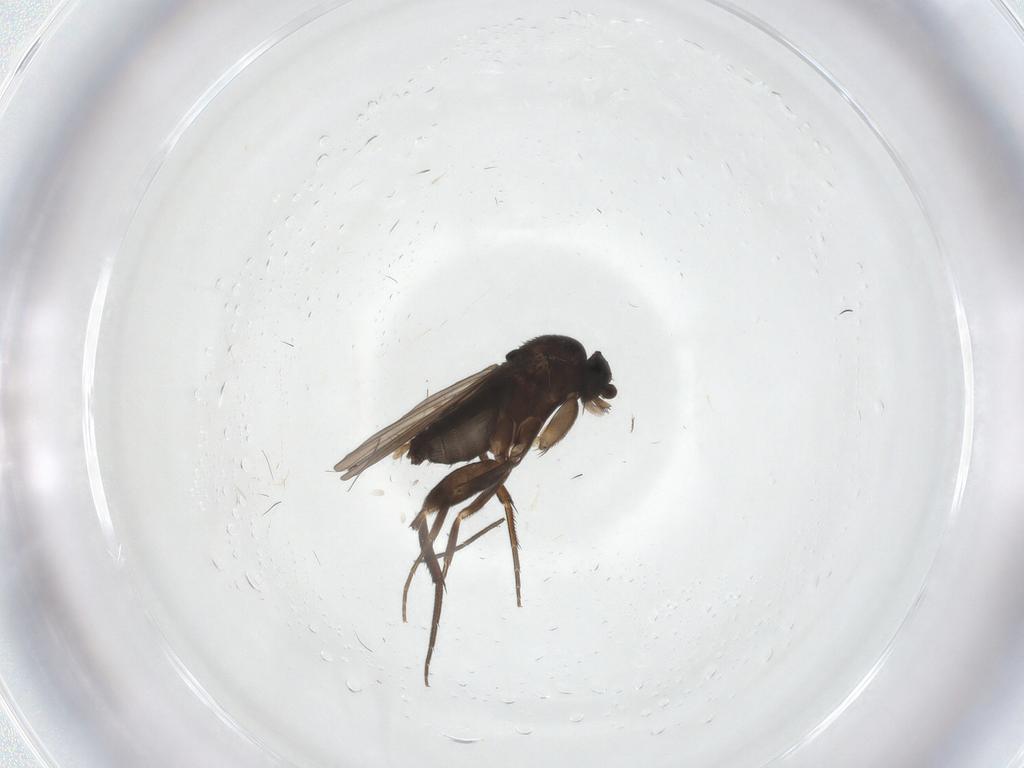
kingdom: Animalia
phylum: Arthropoda
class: Insecta
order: Diptera
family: Phoridae
